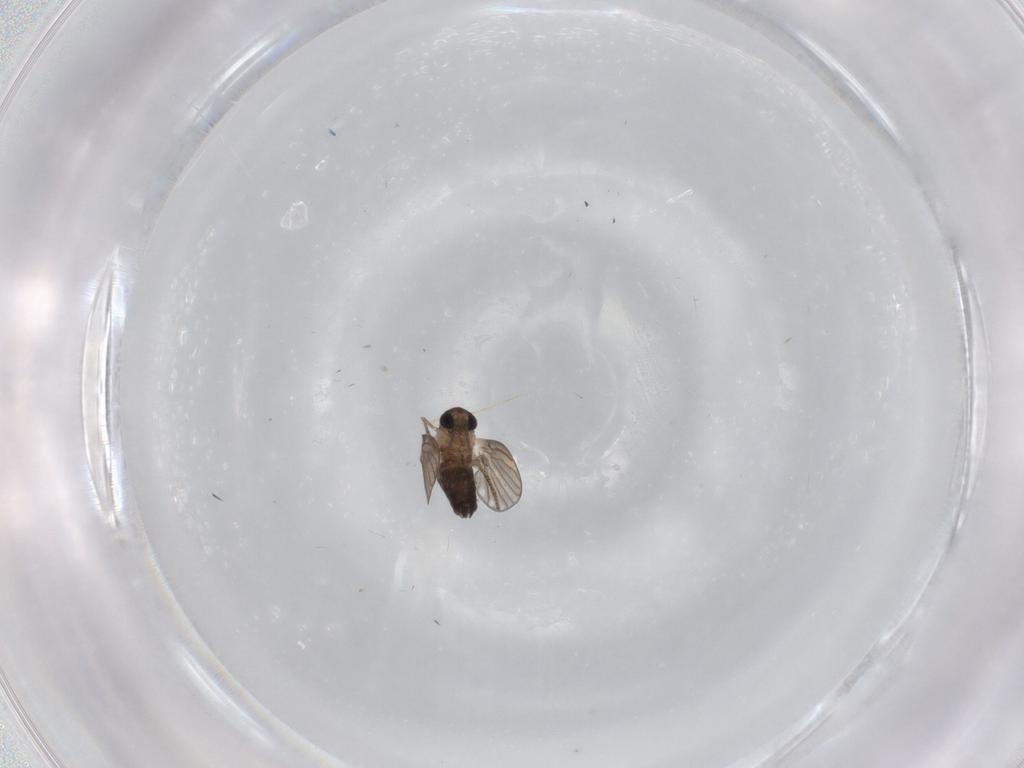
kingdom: Animalia
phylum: Arthropoda
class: Insecta
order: Diptera
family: Psychodidae
